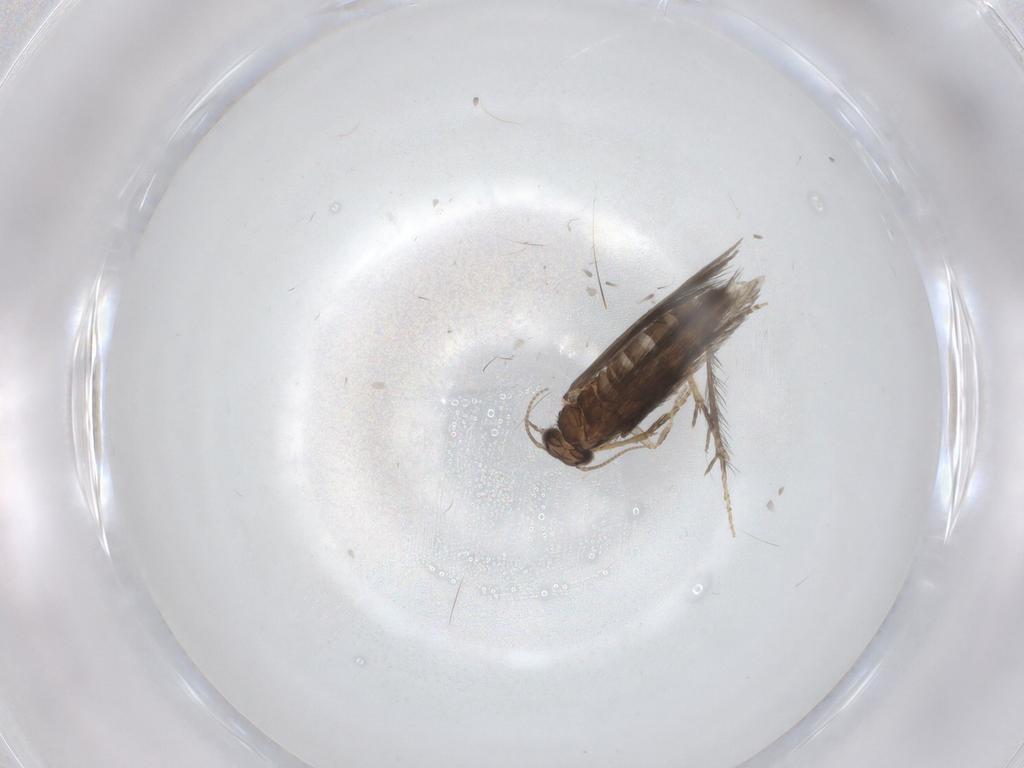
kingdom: Animalia
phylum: Arthropoda
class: Insecta
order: Trichoptera
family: Hydroptilidae
